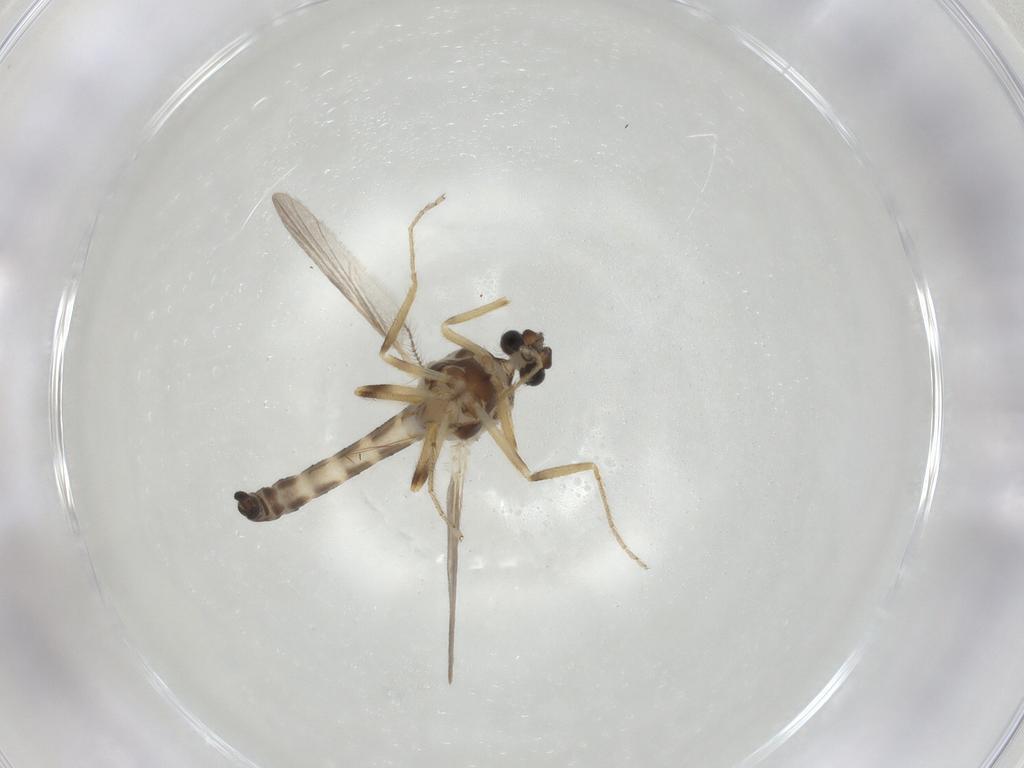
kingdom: Animalia
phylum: Arthropoda
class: Insecta
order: Diptera
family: Ceratopogonidae
